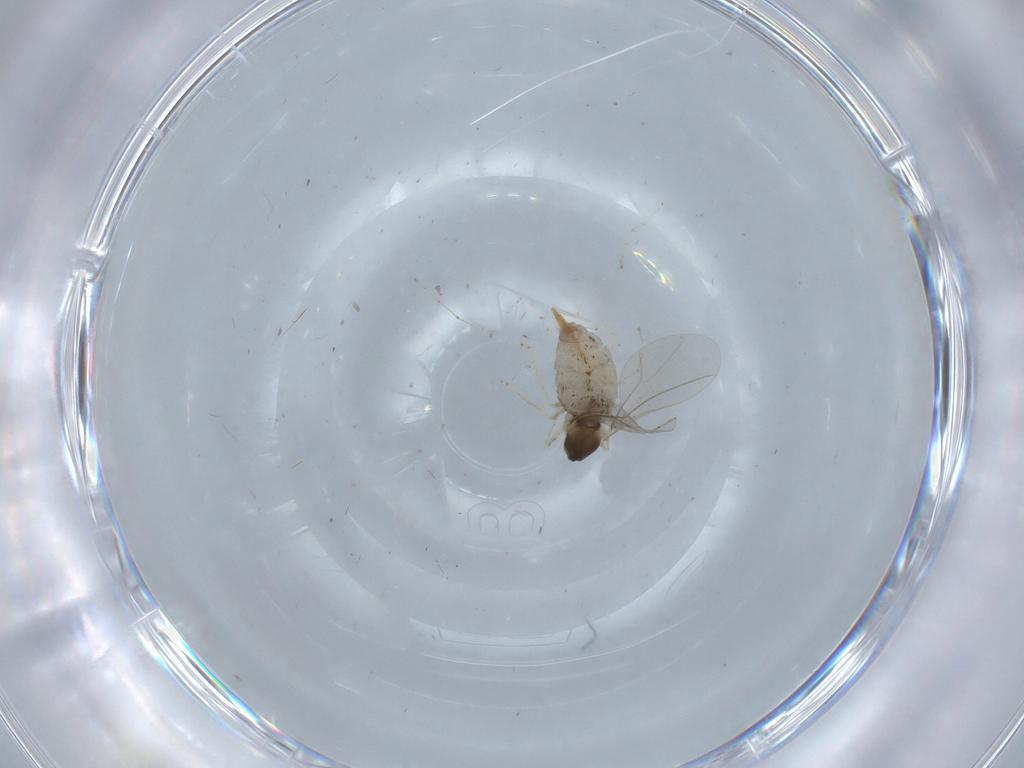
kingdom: Animalia
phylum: Arthropoda
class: Insecta
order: Diptera
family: Cecidomyiidae
